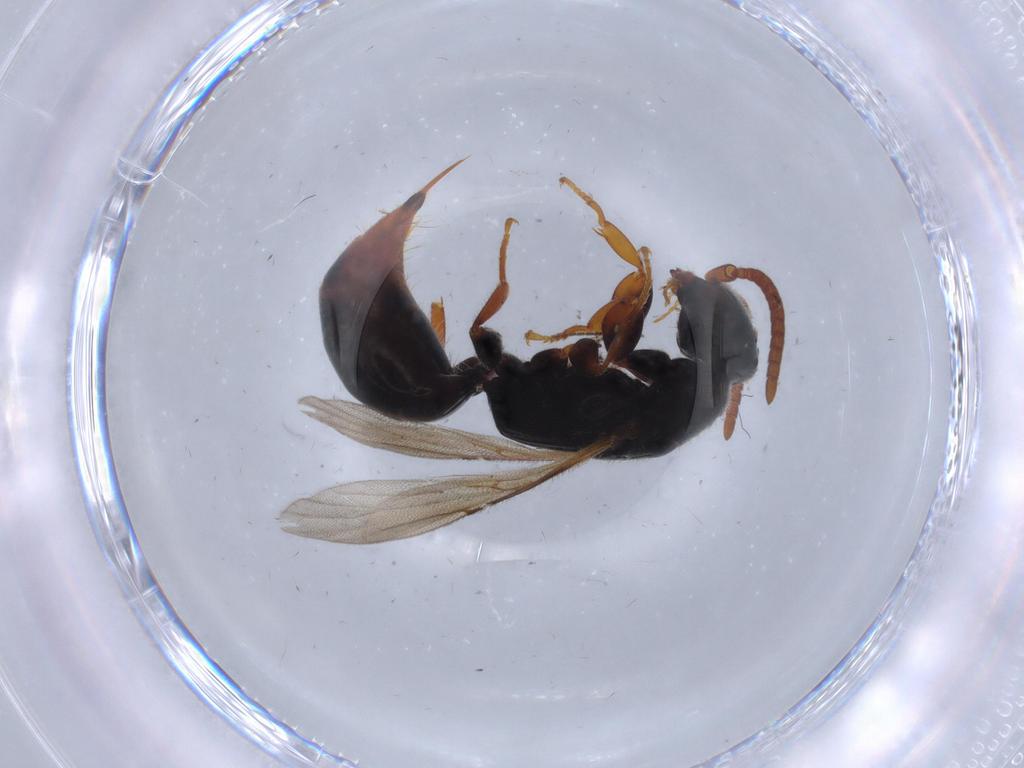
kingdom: Animalia
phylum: Arthropoda
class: Insecta
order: Hymenoptera
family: Bethylidae
